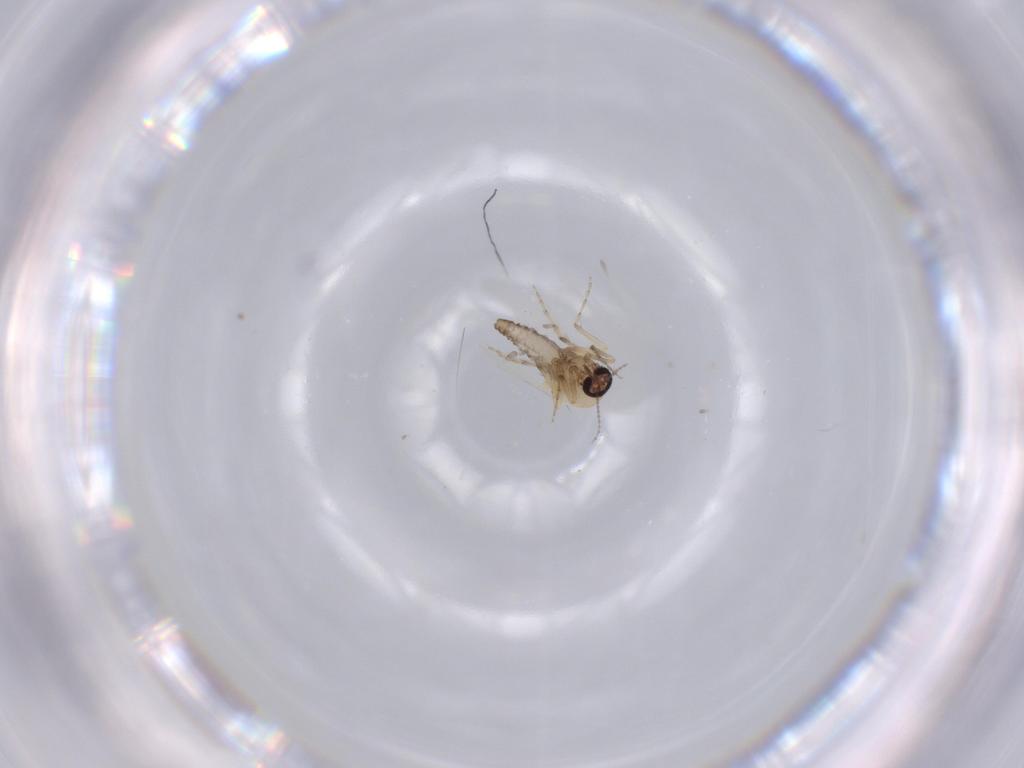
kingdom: Animalia
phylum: Arthropoda
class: Insecta
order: Diptera
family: Ceratopogonidae
